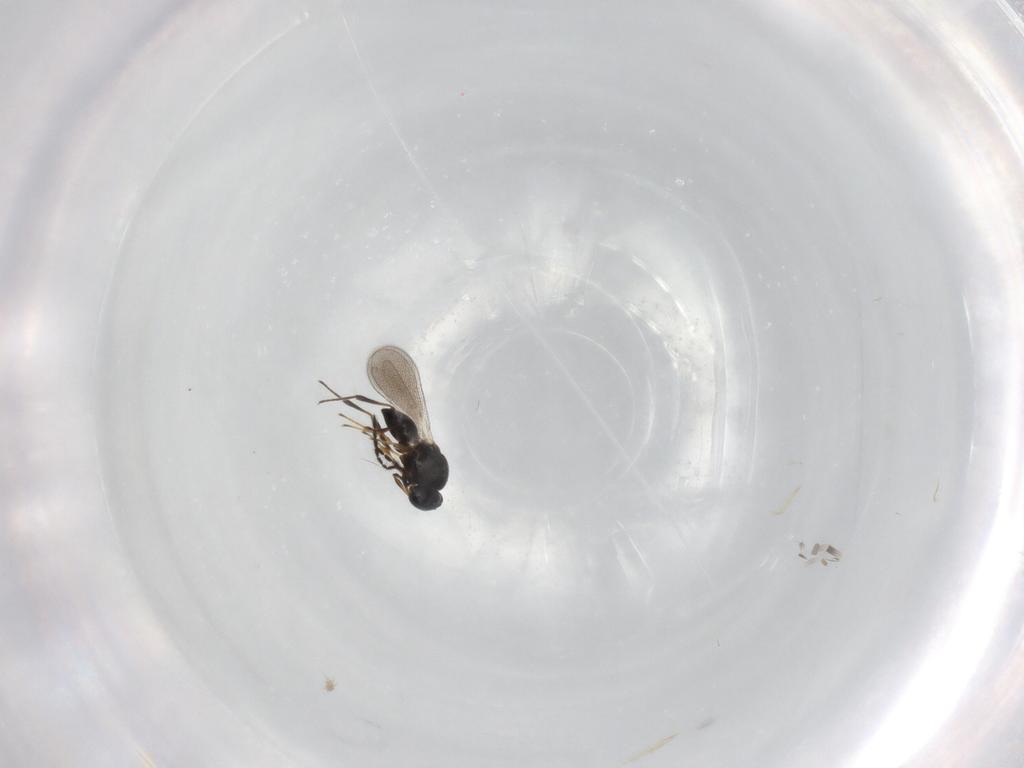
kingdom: Animalia
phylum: Arthropoda
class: Insecta
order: Hymenoptera
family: Platygastridae
